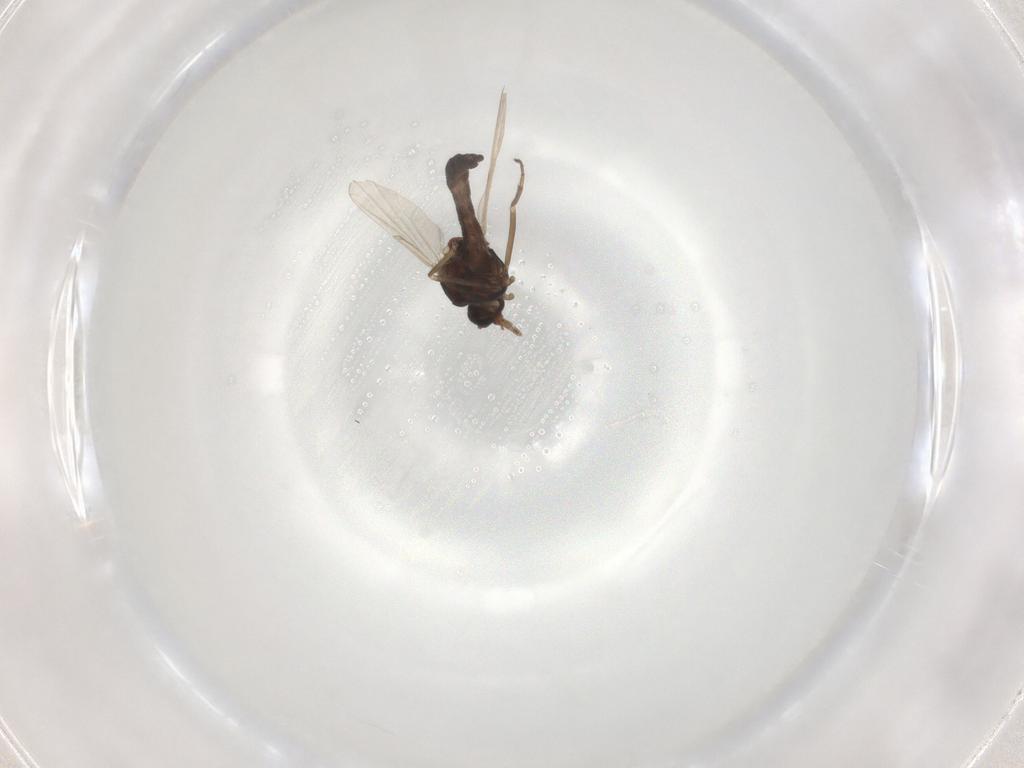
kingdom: Animalia
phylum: Arthropoda
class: Insecta
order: Diptera
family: Ceratopogonidae
